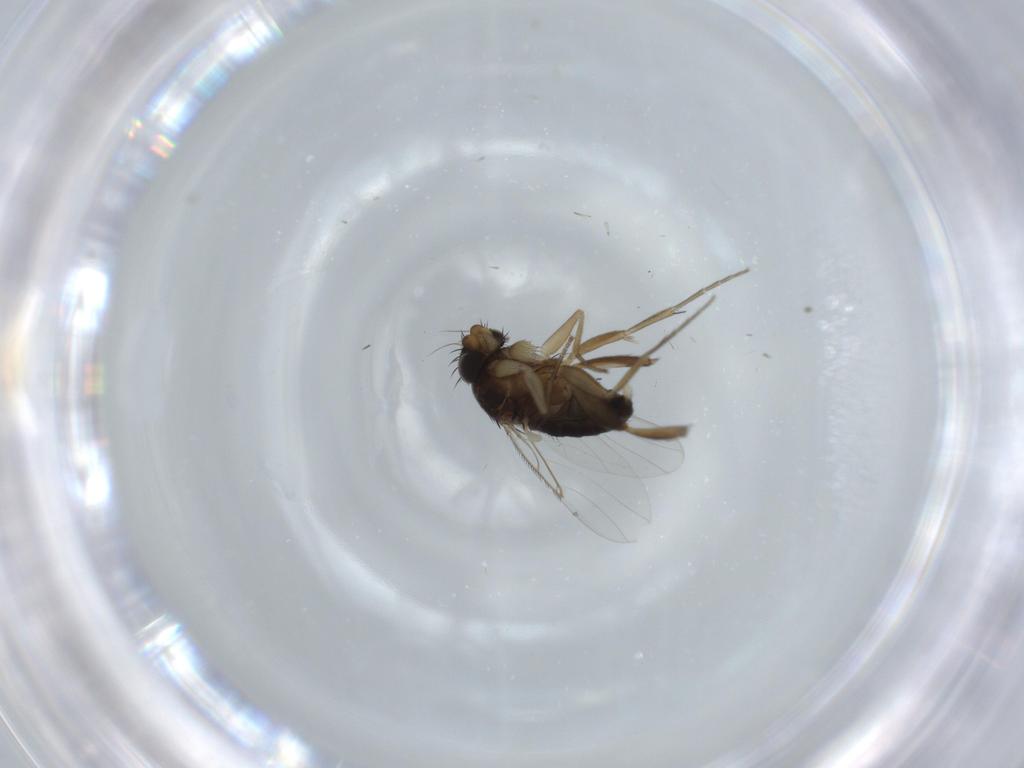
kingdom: Animalia
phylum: Arthropoda
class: Insecta
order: Diptera
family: Phoridae
